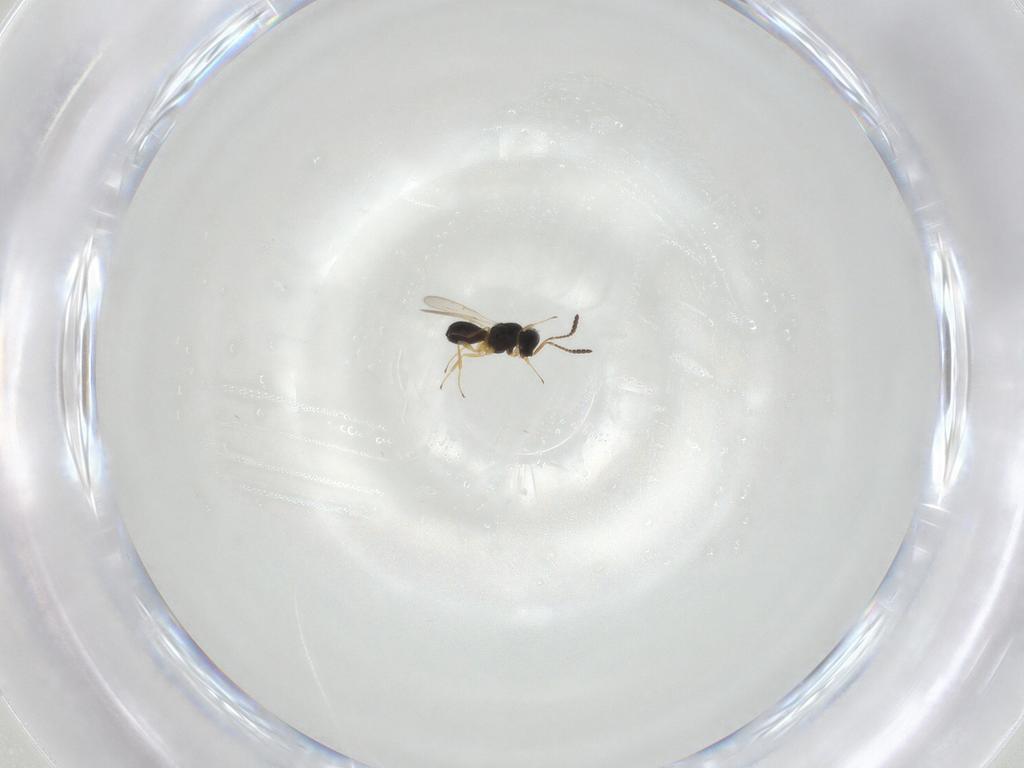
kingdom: Animalia
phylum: Arthropoda
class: Insecta
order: Hymenoptera
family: Scelionidae
